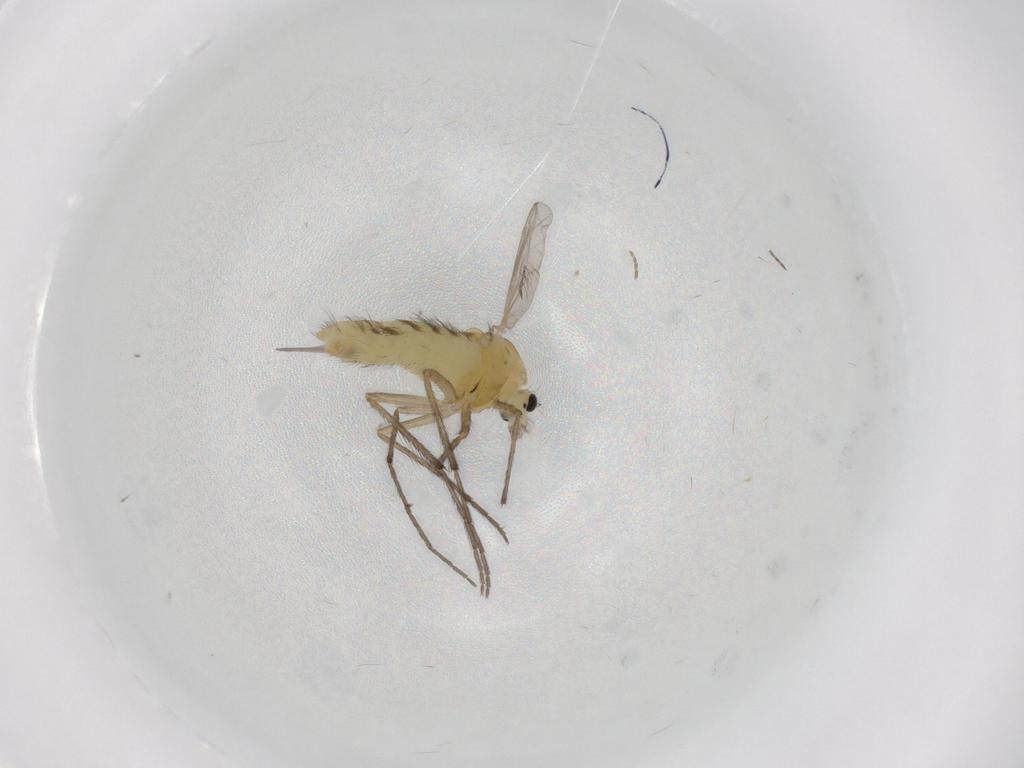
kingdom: Animalia
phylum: Arthropoda
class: Insecta
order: Diptera
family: Chironomidae
